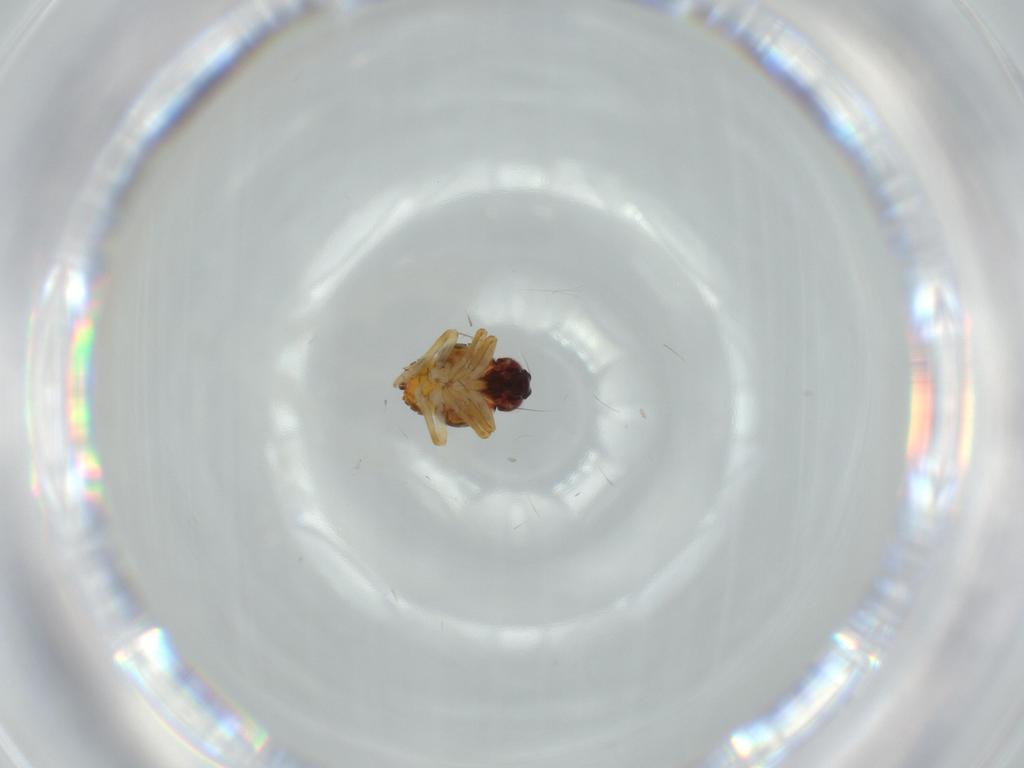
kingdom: Animalia
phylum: Arthropoda
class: Insecta
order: Hemiptera
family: Issidae
